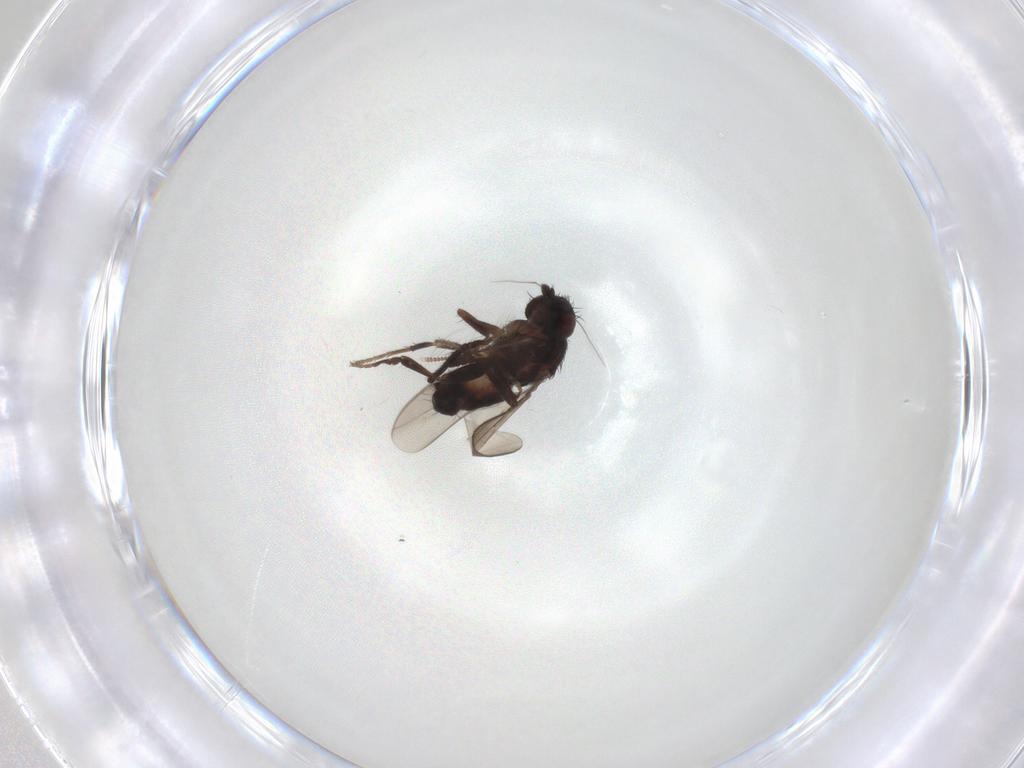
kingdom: Animalia
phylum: Arthropoda
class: Insecta
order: Diptera
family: Sphaeroceridae
